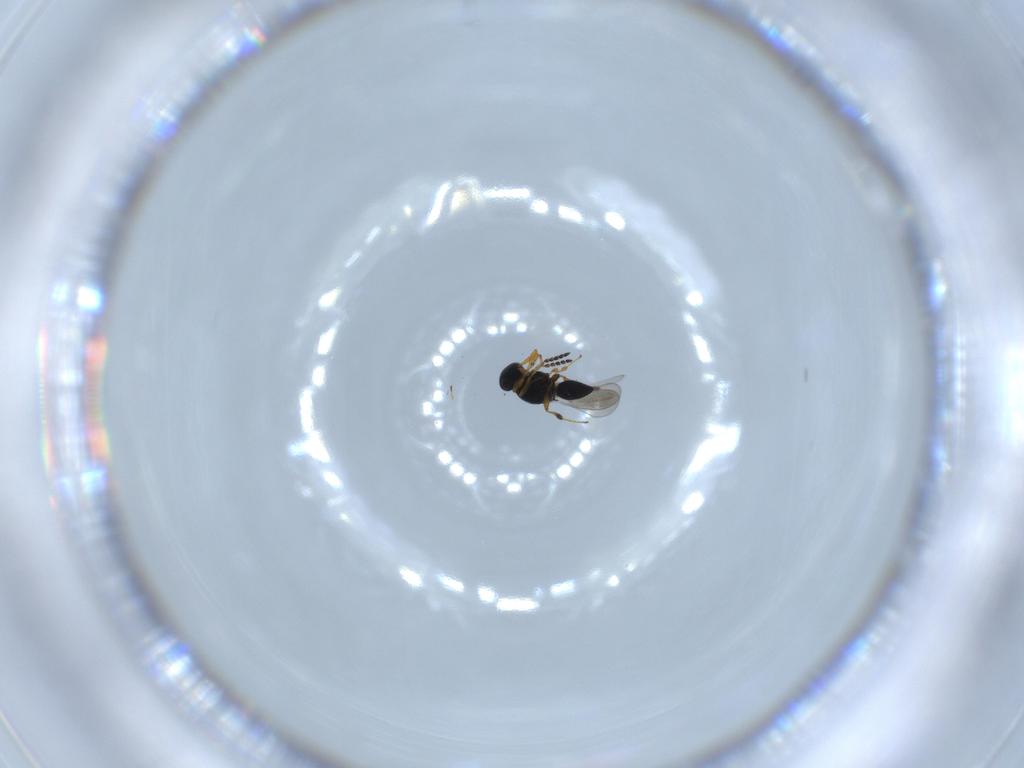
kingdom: Animalia
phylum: Arthropoda
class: Insecta
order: Hymenoptera
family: Platygastridae
